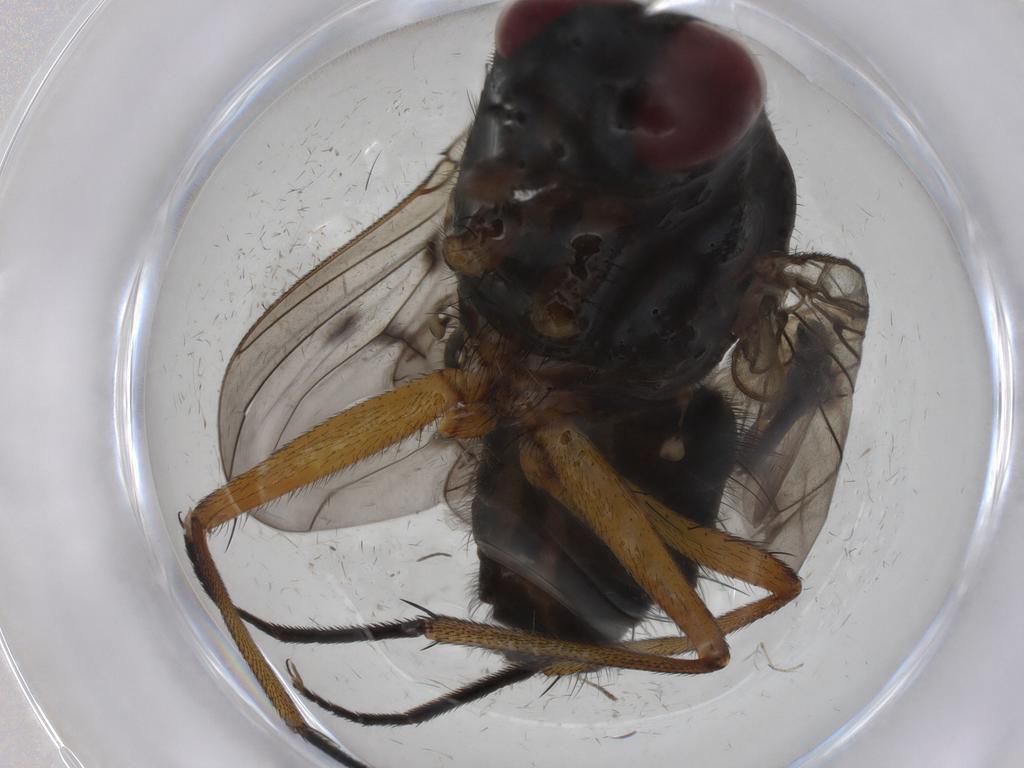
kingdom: Animalia
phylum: Arthropoda
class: Insecta
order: Diptera
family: Muscidae
